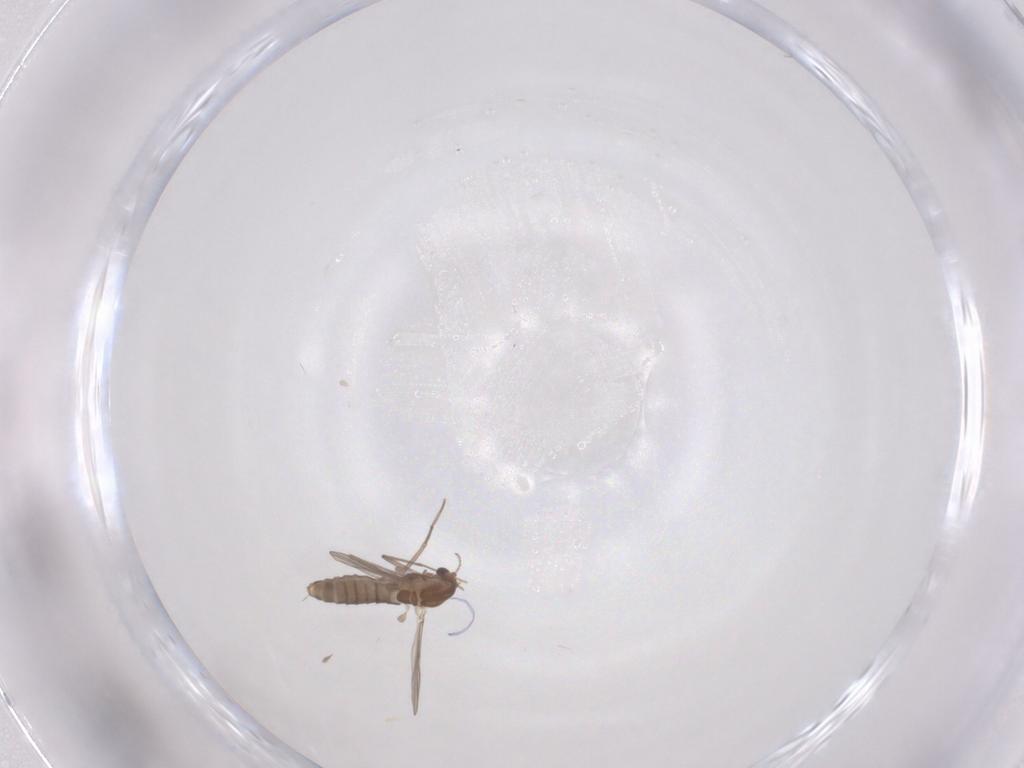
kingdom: Animalia
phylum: Arthropoda
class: Insecta
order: Diptera
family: Chironomidae
